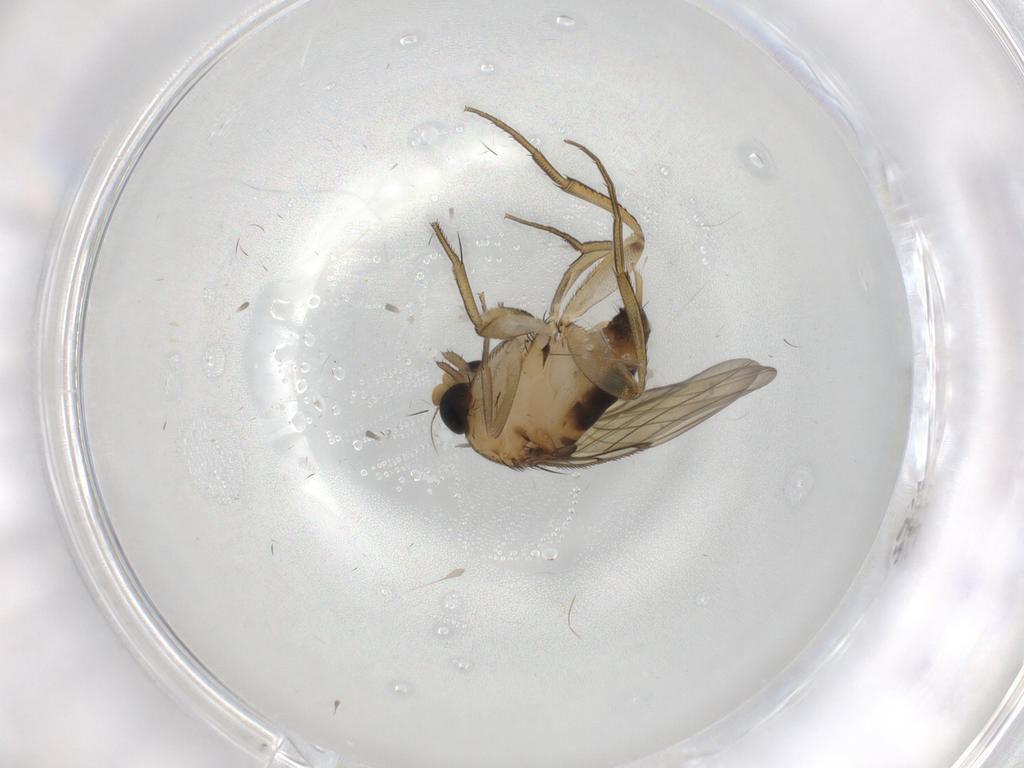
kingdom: Animalia
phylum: Arthropoda
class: Insecta
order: Diptera
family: Phoridae
